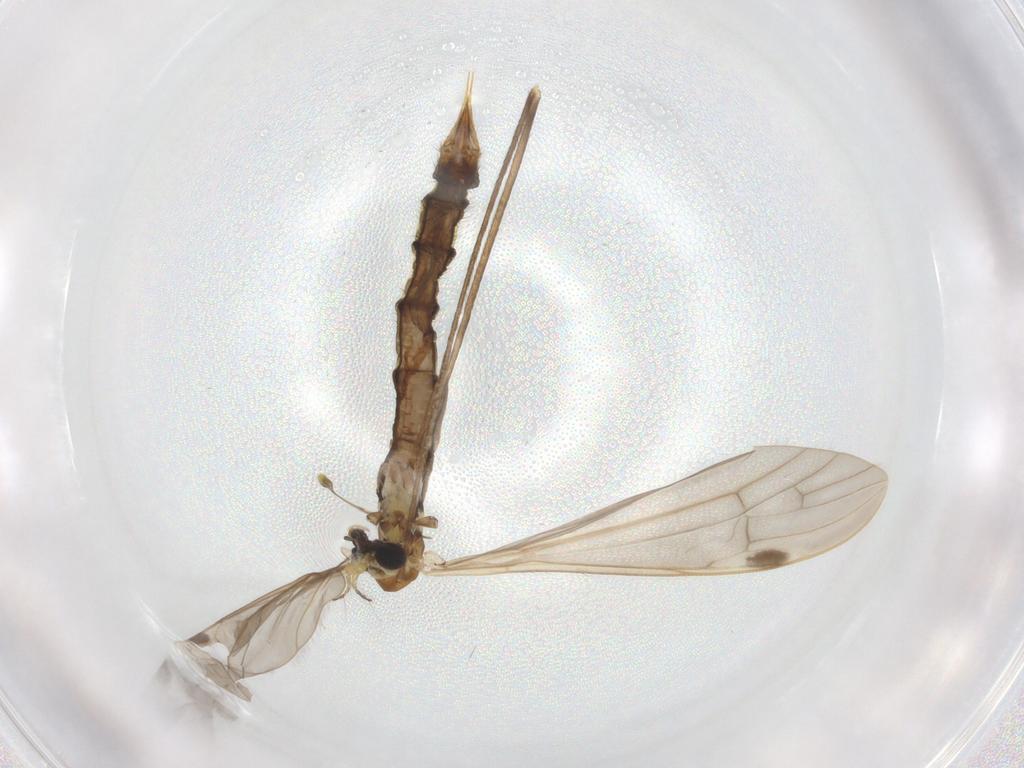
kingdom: Animalia
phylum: Arthropoda
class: Insecta
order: Diptera
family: Limoniidae
